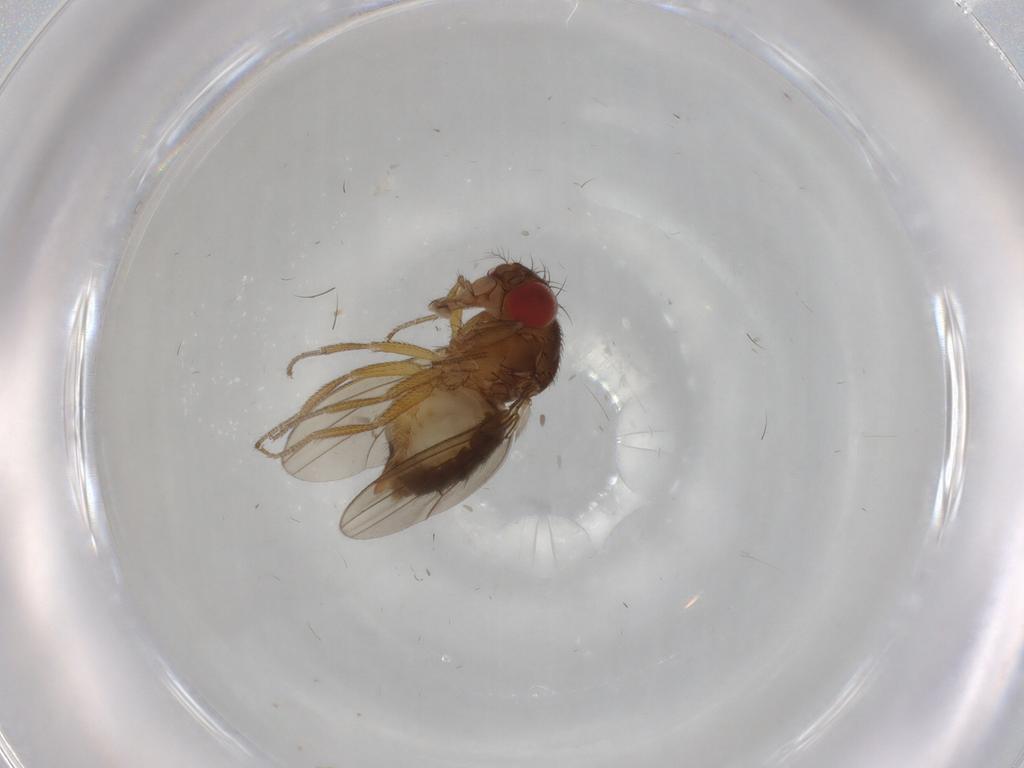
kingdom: Animalia
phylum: Arthropoda
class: Insecta
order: Diptera
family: Drosophilidae
